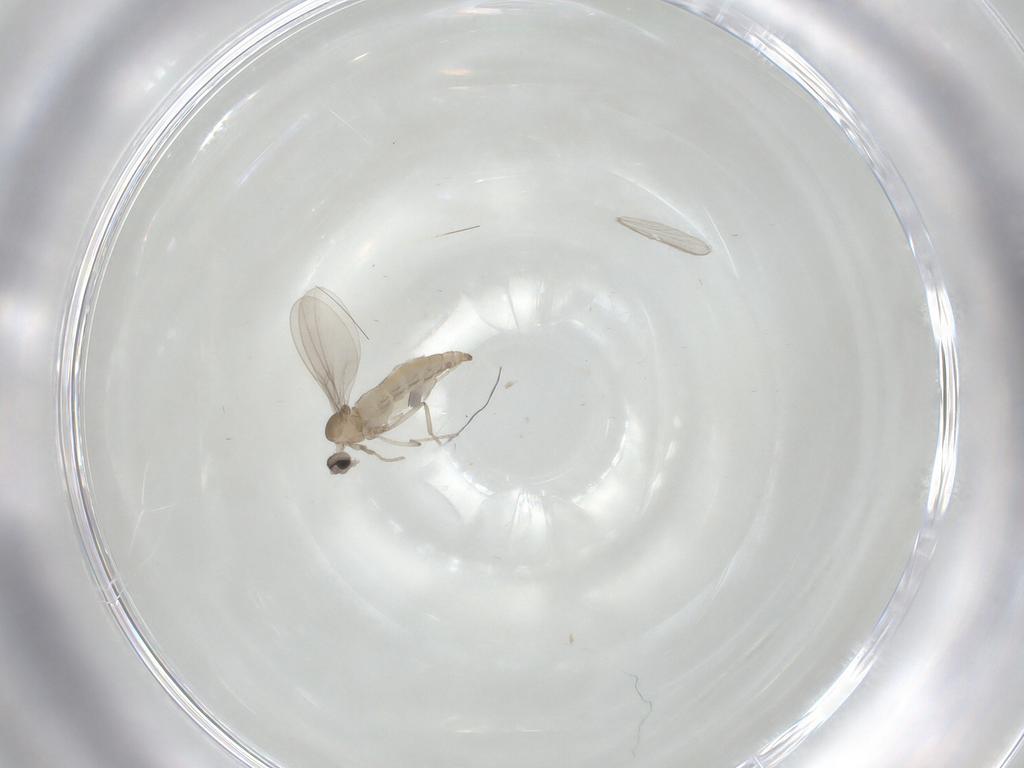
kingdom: Animalia
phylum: Arthropoda
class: Insecta
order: Diptera
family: Cecidomyiidae
